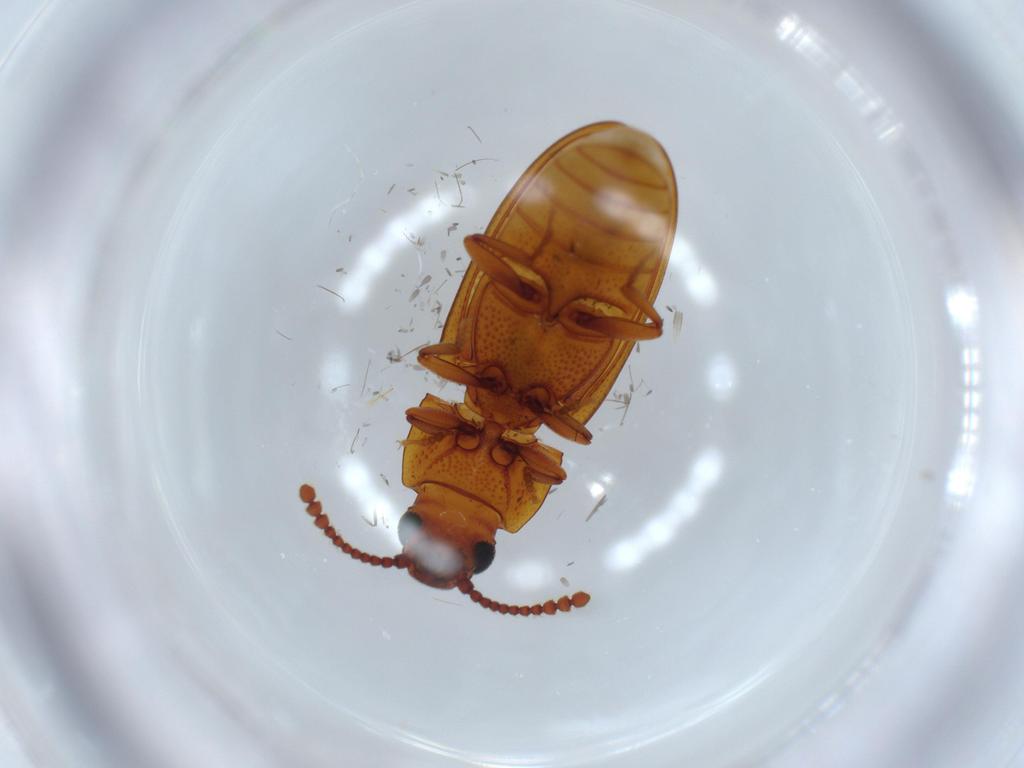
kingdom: Animalia
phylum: Arthropoda
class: Insecta
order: Coleoptera
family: Erotylidae
